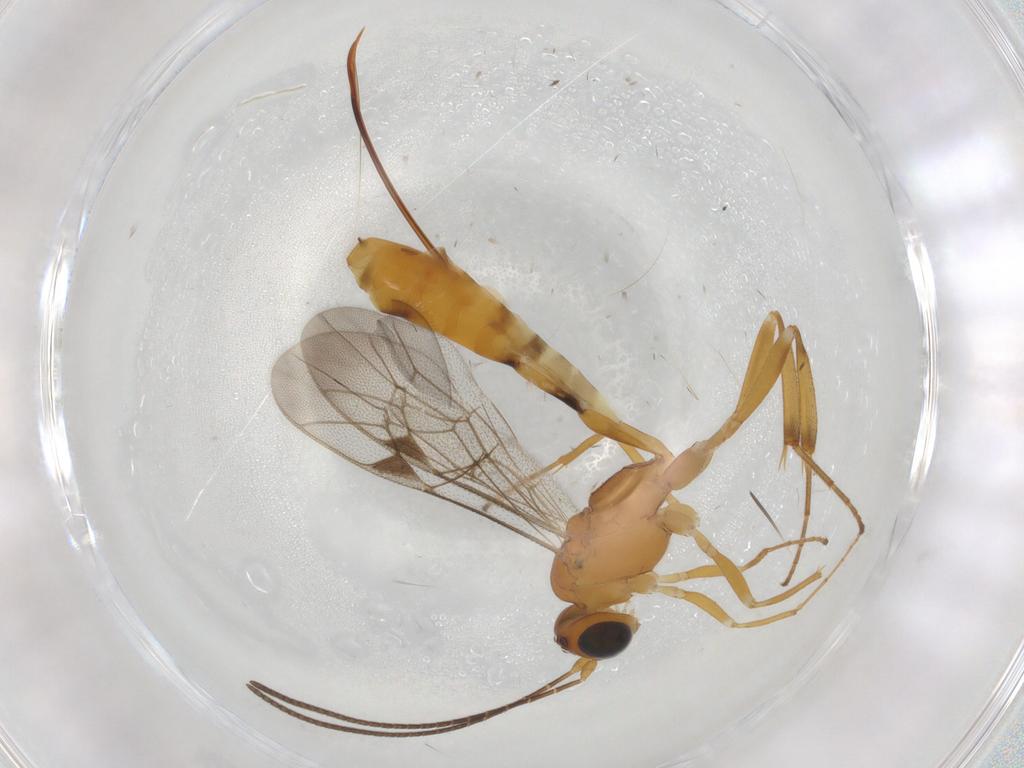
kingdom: Animalia
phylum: Arthropoda
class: Insecta
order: Hymenoptera
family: Ichneumonidae
